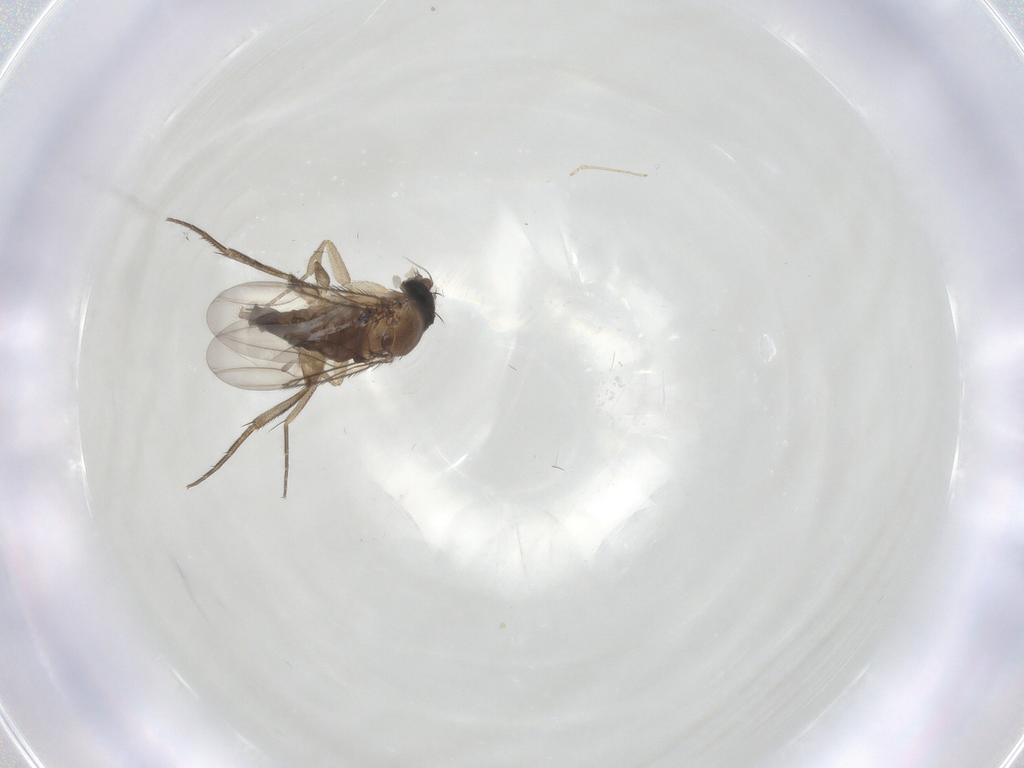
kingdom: Animalia
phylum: Arthropoda
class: Insecta
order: Diptera
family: Phoridae
